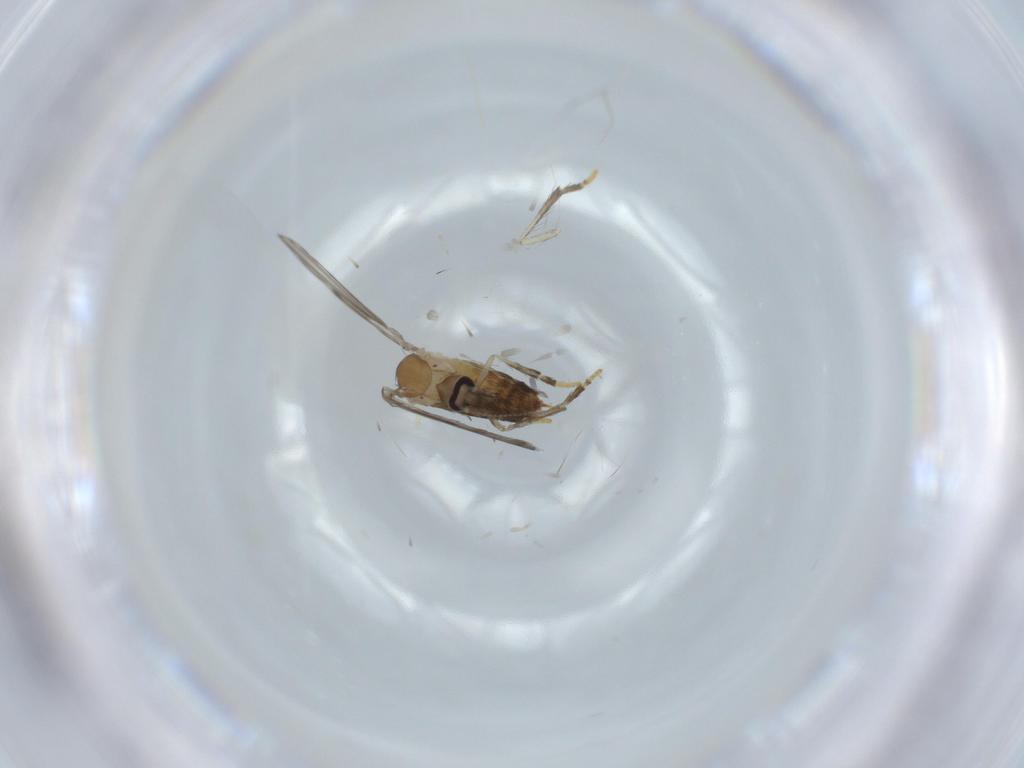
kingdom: Animalia
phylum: Arthropoda
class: Insecta
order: Diptera
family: Psychodidae
